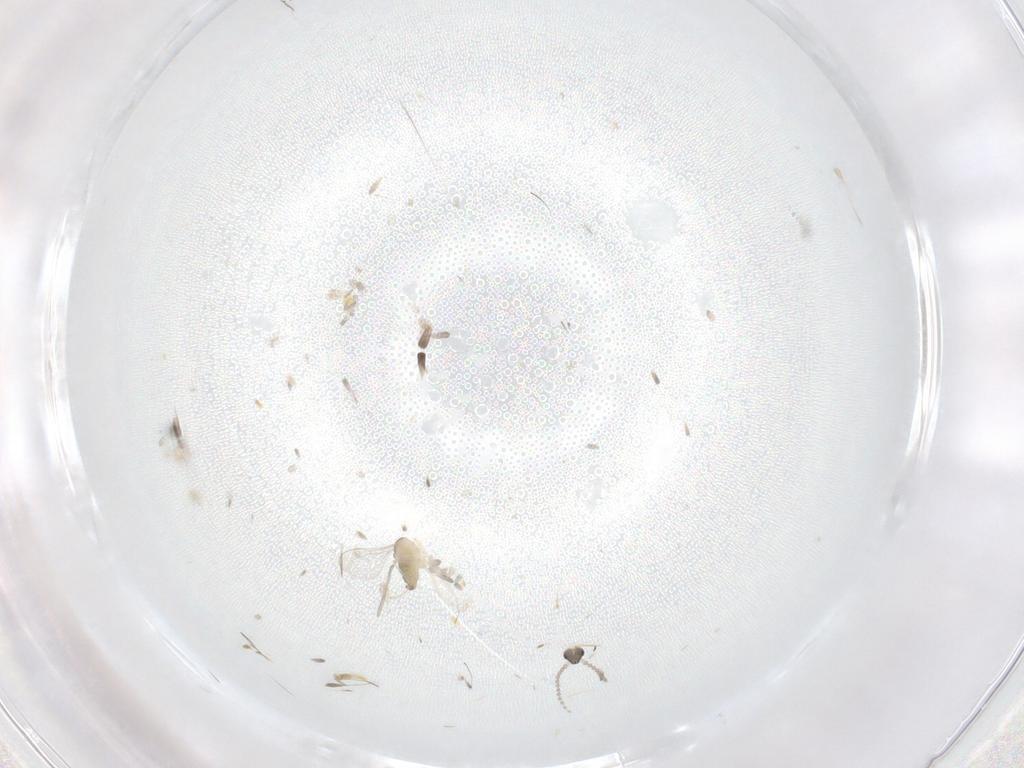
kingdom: Animalia
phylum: Arthropoda
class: Insecta
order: Diptera
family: Cecidomyiidae
